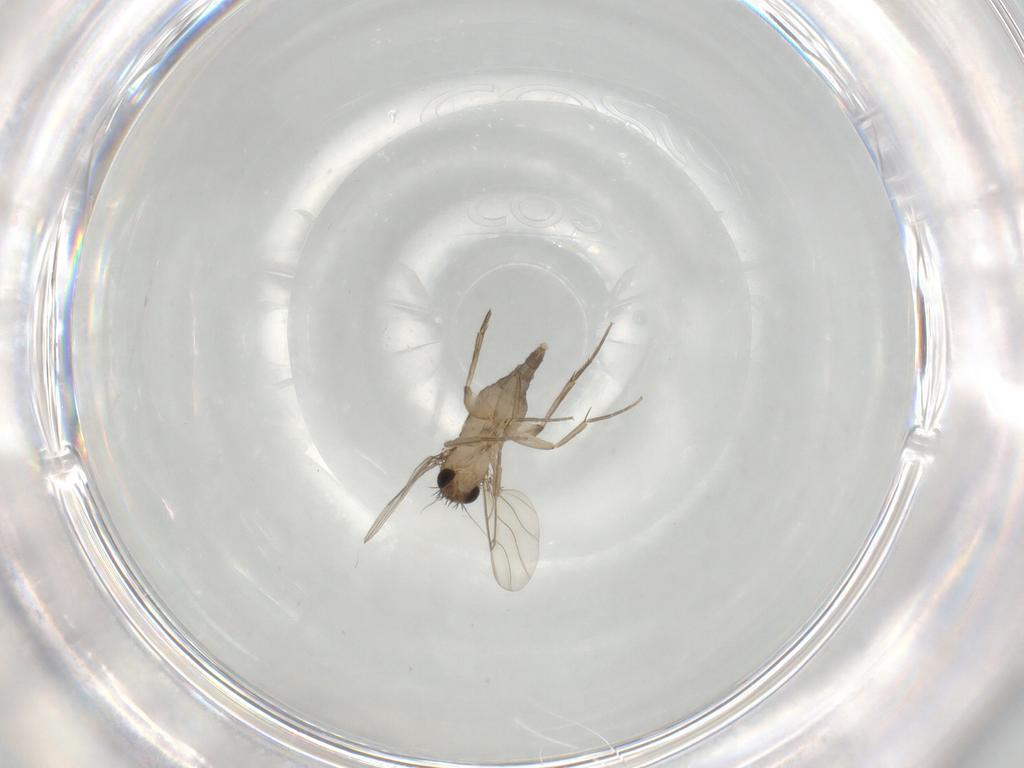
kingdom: Animalia
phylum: Arthropoda
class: Insecta
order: Diptera
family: Phoridae
